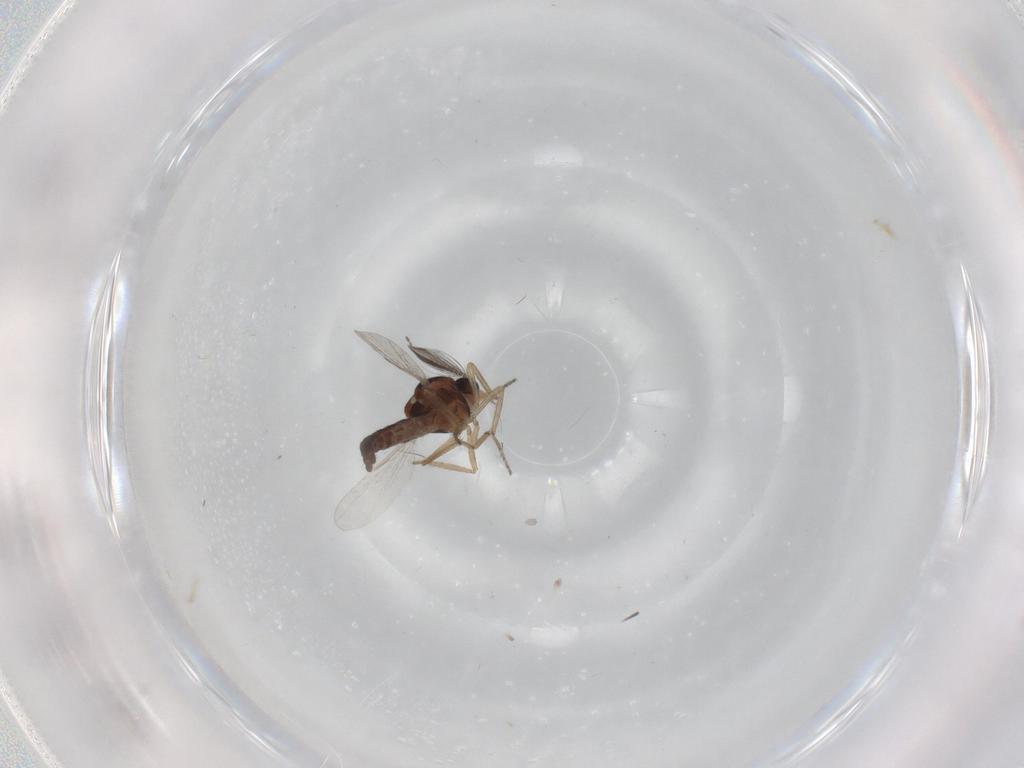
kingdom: Animalia
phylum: Arthropoda
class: Insecta
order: Diptera
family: Ceratopogonidae
